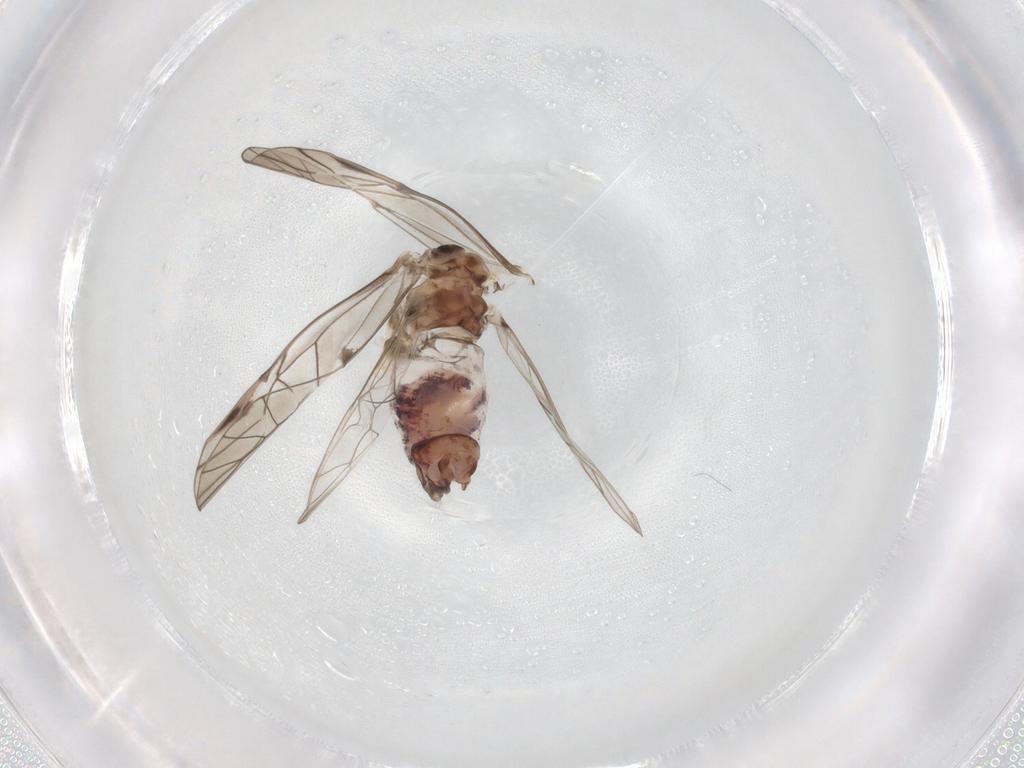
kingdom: Animalia
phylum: Arthropoda
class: Insecta
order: Psocodea
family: Psocidae
